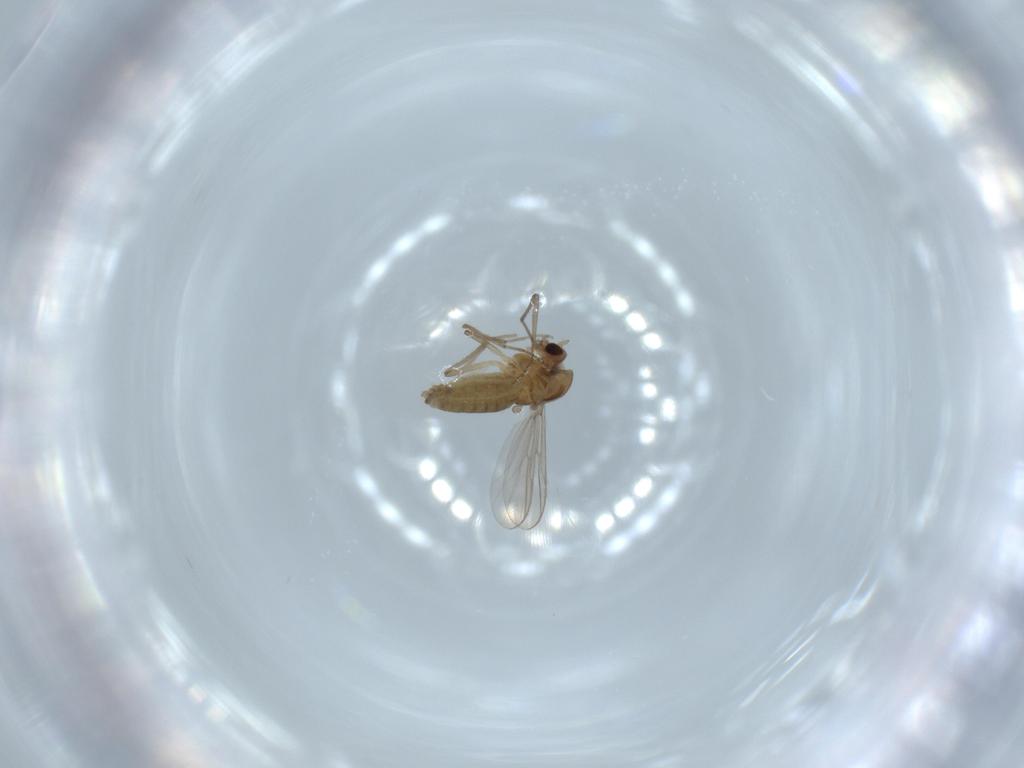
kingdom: Animalia
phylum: Arthropoda
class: Insecta
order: Diptera
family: Chironomidae
